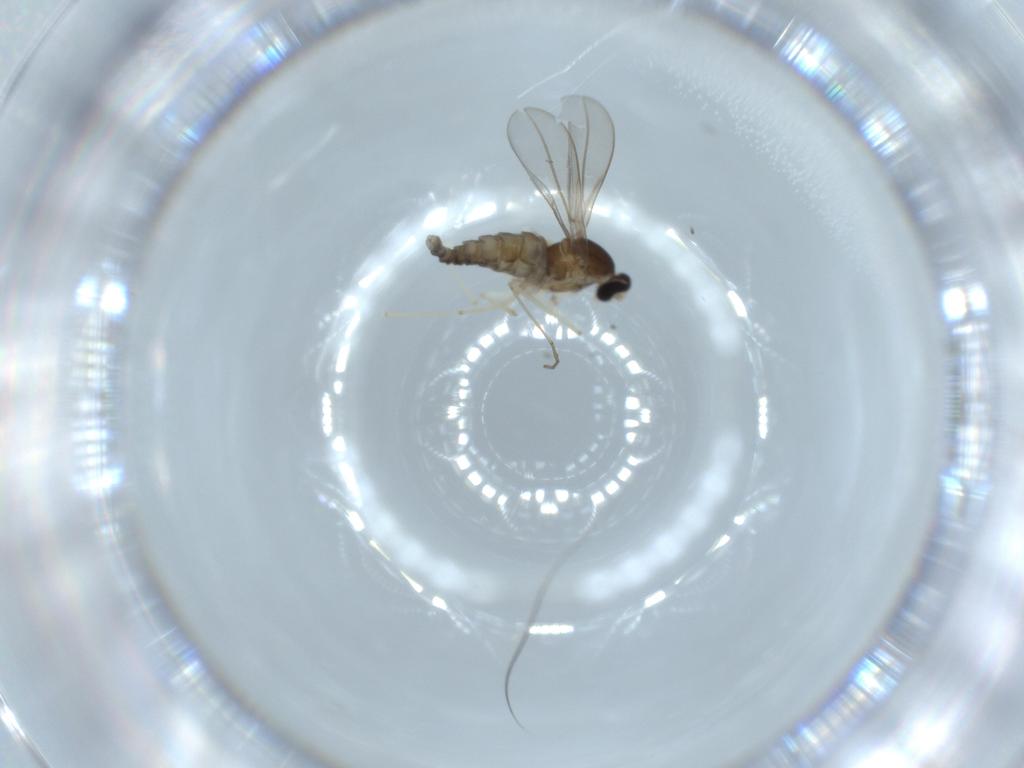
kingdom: Animalia
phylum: Arthropoda
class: Insecta
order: Diptera
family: Cecidomyiidae
